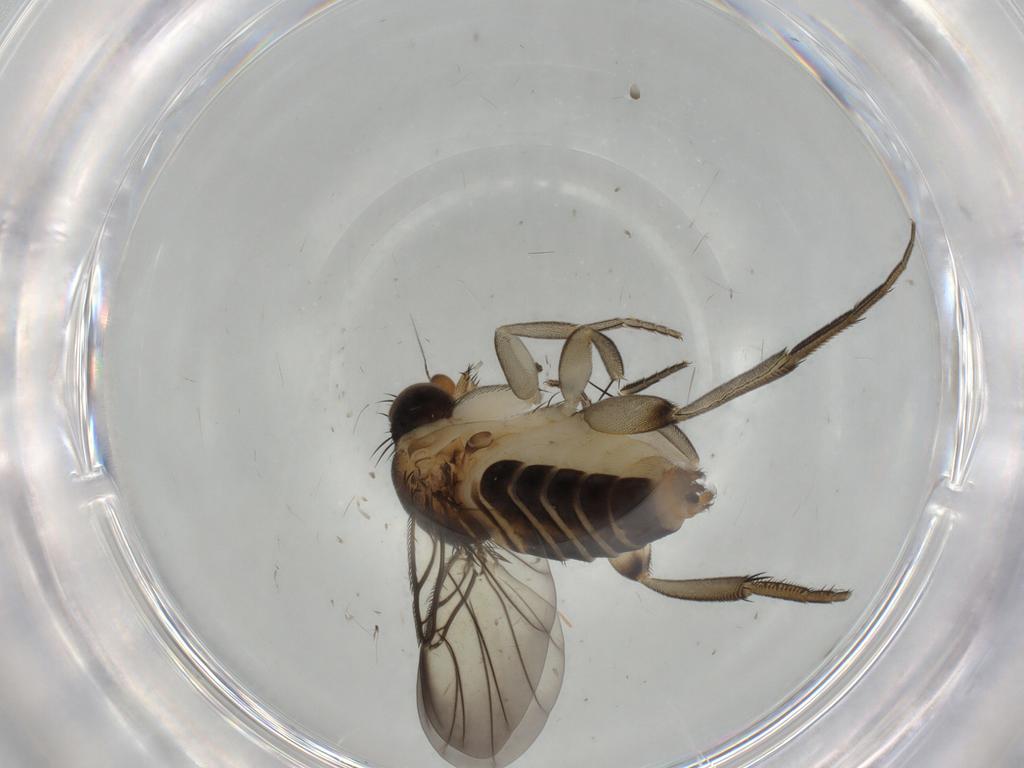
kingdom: Animalia
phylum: Arthropoda
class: Insecta
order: Diptera
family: Phoridae
